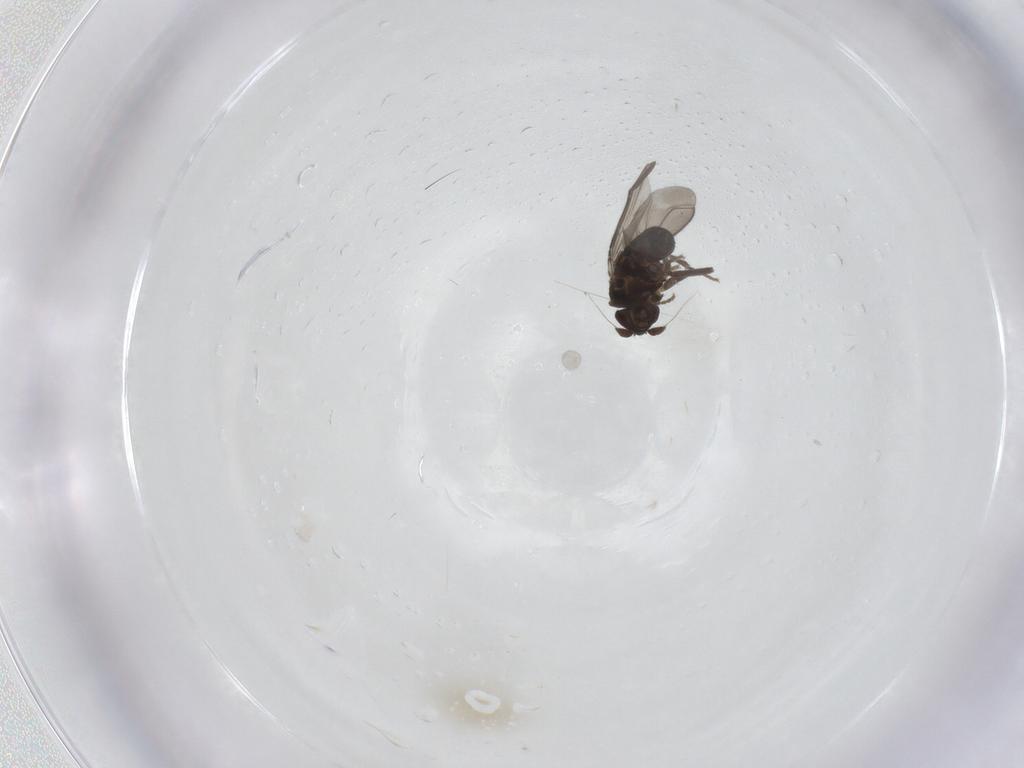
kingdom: Animalia
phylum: Arthropoda
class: Insecta
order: Diptera
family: Sphaeroceridae
